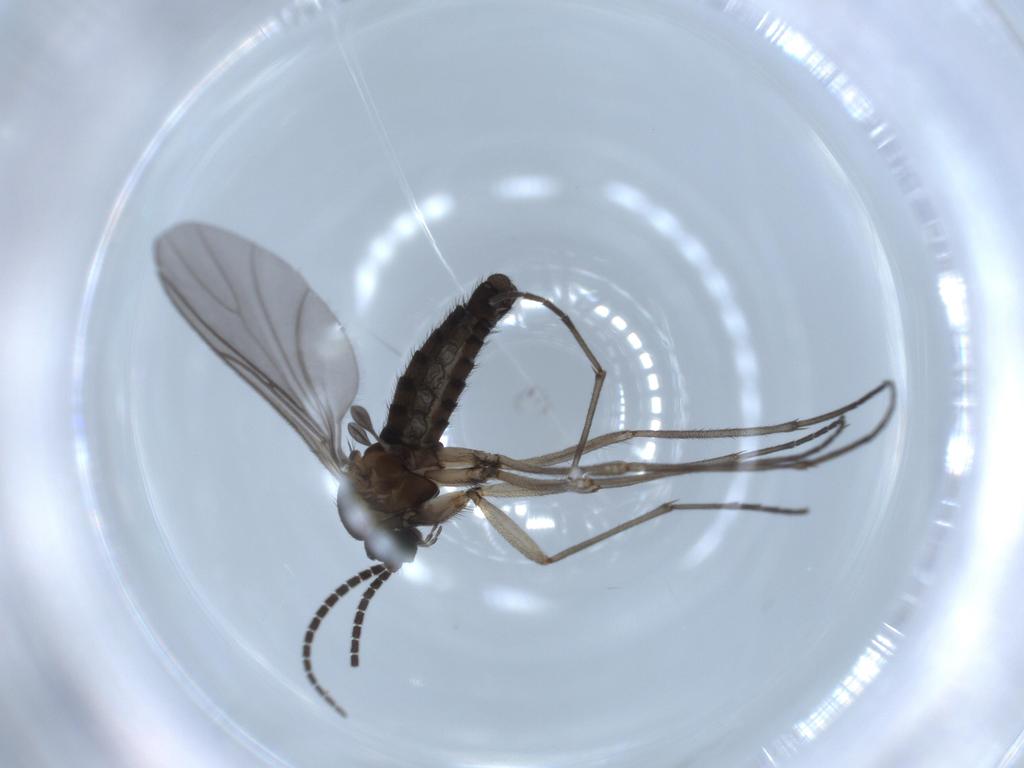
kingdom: Animalia
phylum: Arthropoda
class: Insecta
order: Diptera
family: Sciaridae
